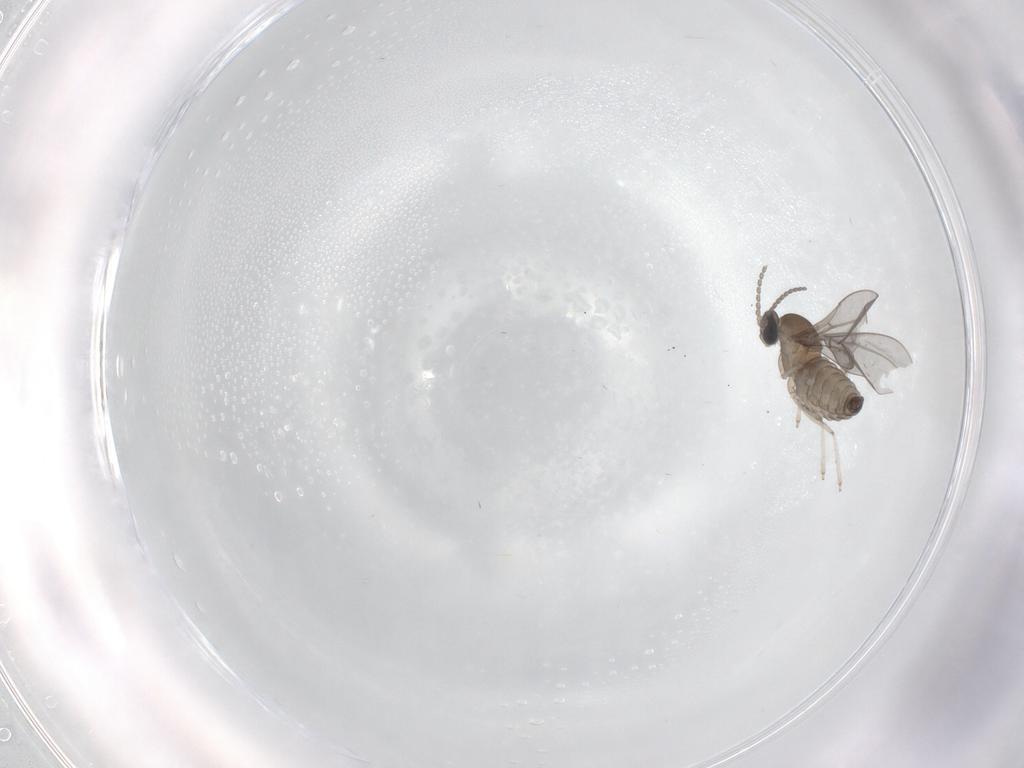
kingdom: Animalia
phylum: Arthropoda
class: Insecta
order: Diptera
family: Cecidomyiidae
